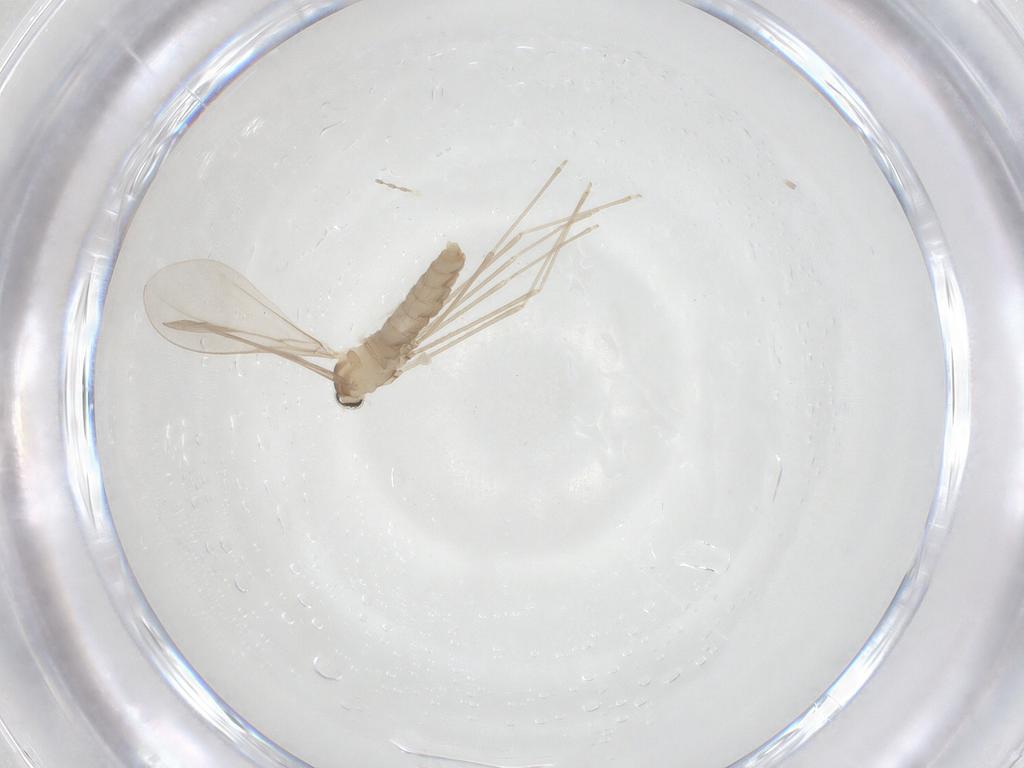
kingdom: Animalia
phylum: Arthropoda
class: Insecta
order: Diptera
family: Cecidomyiidae
